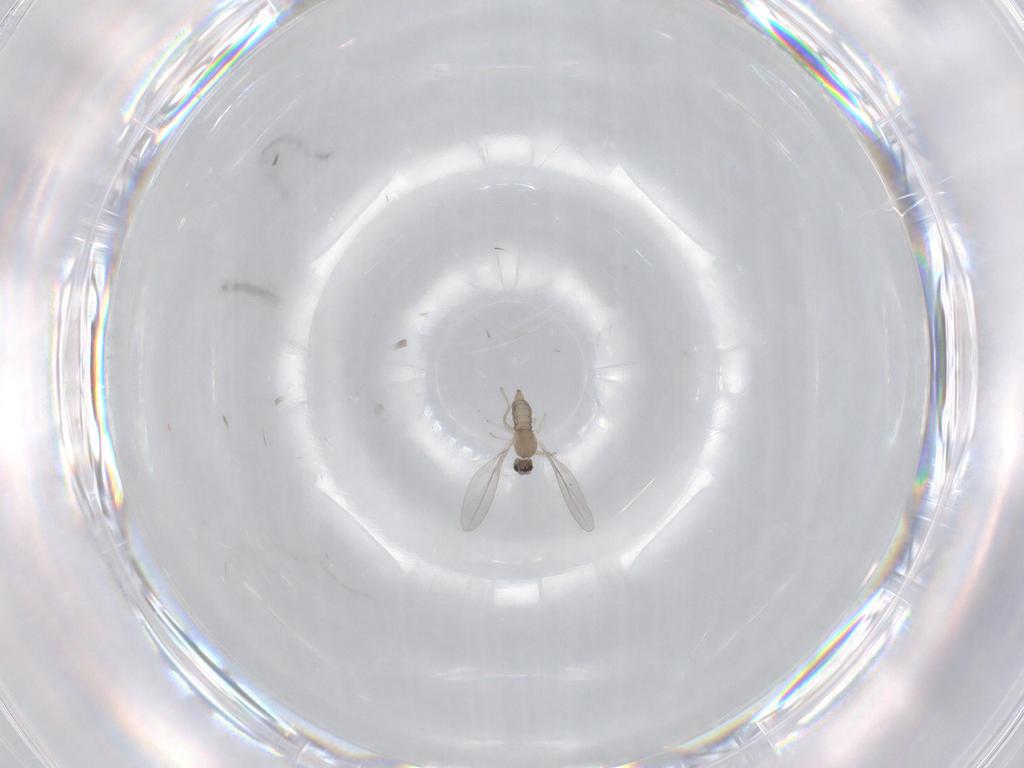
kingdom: Animalia
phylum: Arthropoda
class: Insecta
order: Diptera
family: Cecidomyiidae
